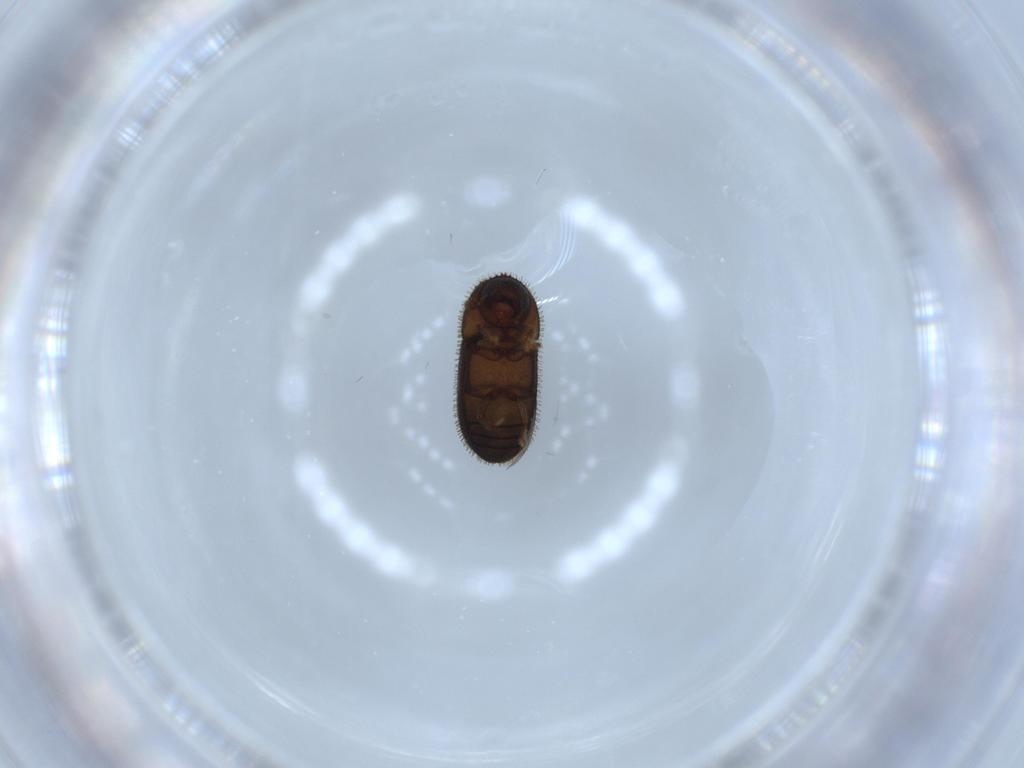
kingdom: Animalia
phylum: Arthropoda
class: Insecta
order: Coleoptera
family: Curculionidae
